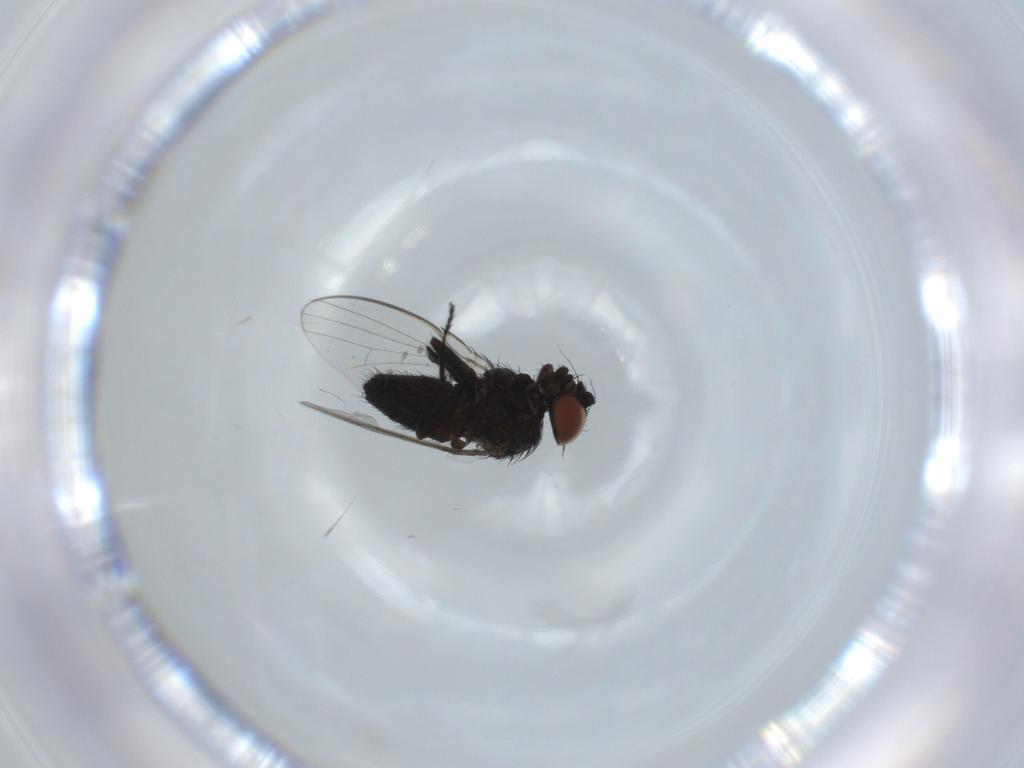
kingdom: Animalia
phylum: Arthropoda
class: Insecta
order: Diptera
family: Milichiidae
